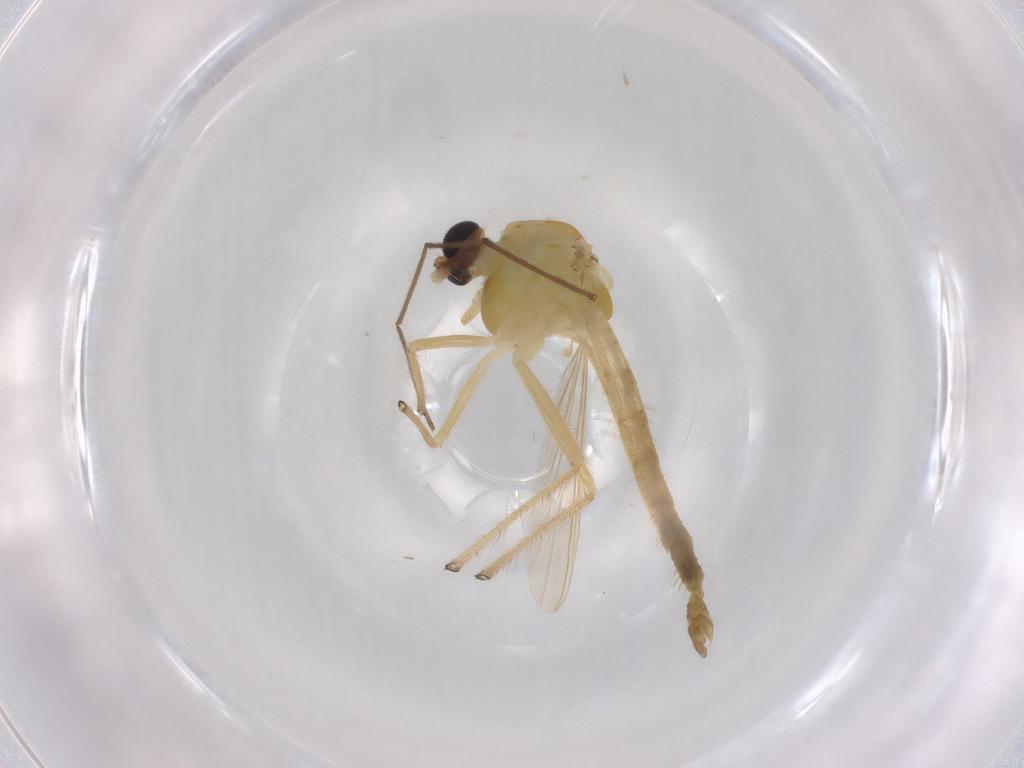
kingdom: Animalia
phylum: Arthropoda
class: Insecta
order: Diptera
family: Chironomidae
